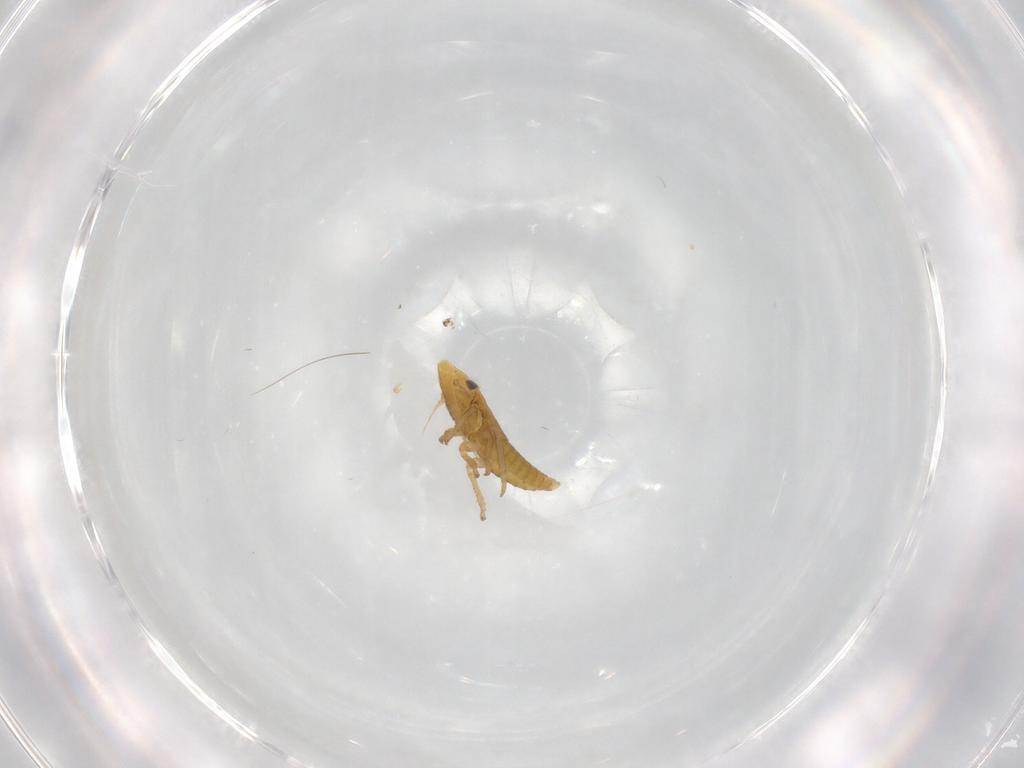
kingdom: Animalia
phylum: Arthropoda
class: Insecta
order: Hemiptera
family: Cicadellidae
